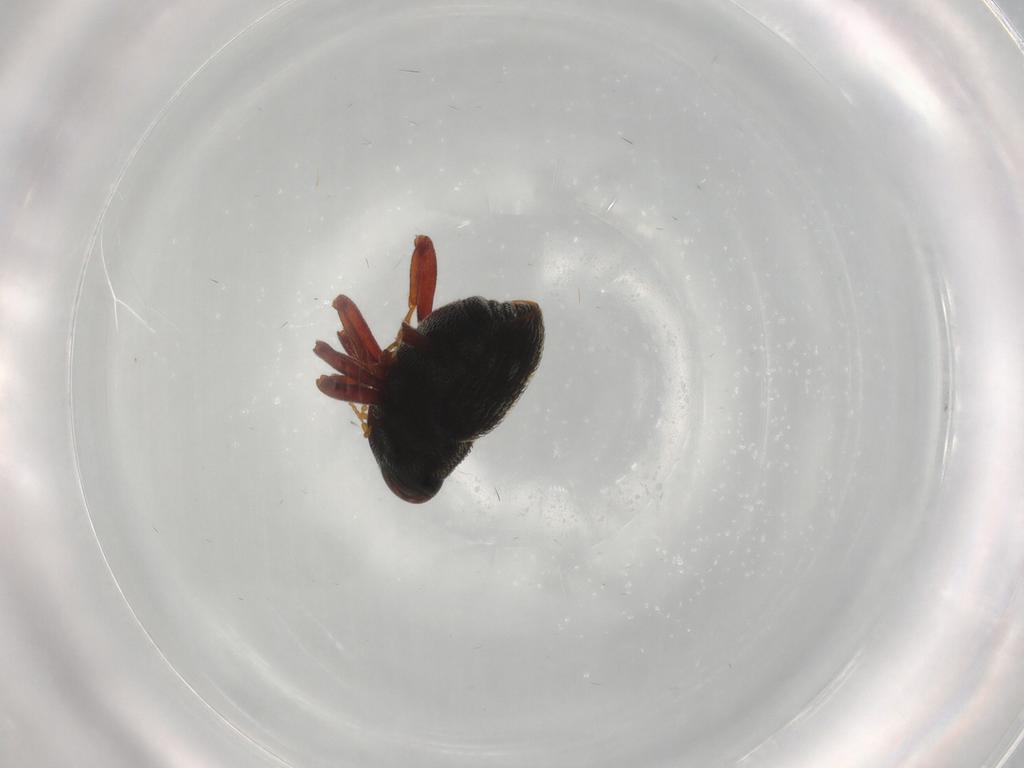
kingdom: Animalia
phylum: Arthropoda
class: Insecta
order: Coleoptera
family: Curculionidae
